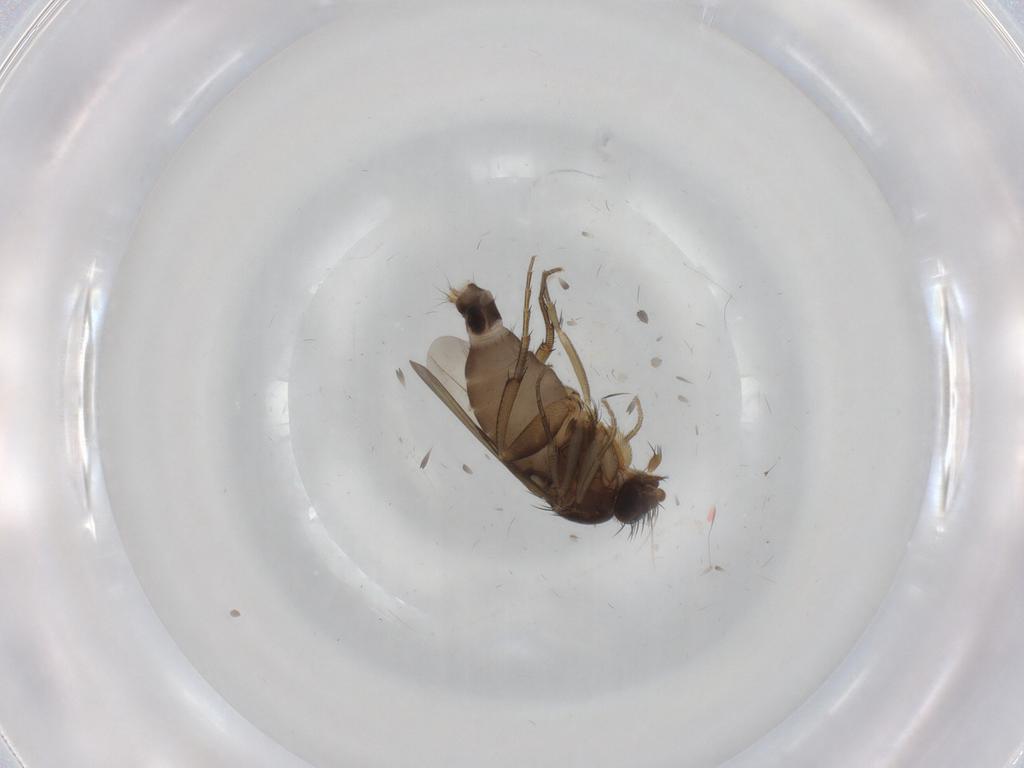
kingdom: Animalia
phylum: Arthropoda
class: Insecta
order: Diptera
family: Phoridae
